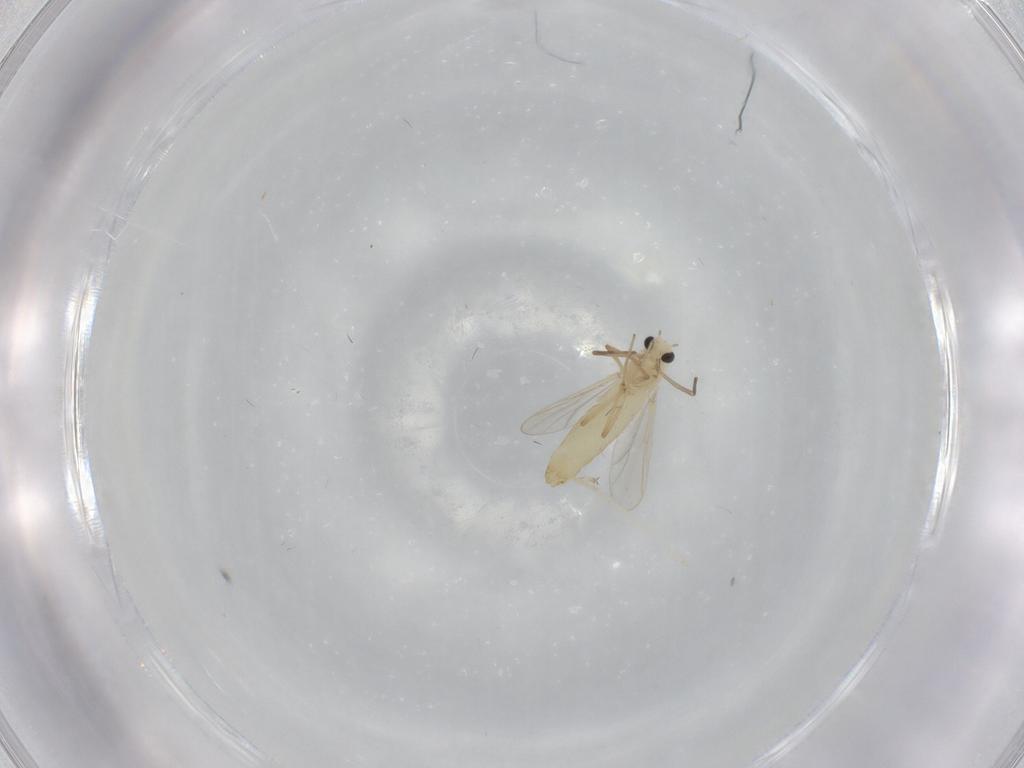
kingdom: Animalia
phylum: Arthropoda
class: Insecta
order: Diptera
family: Chironomidae
